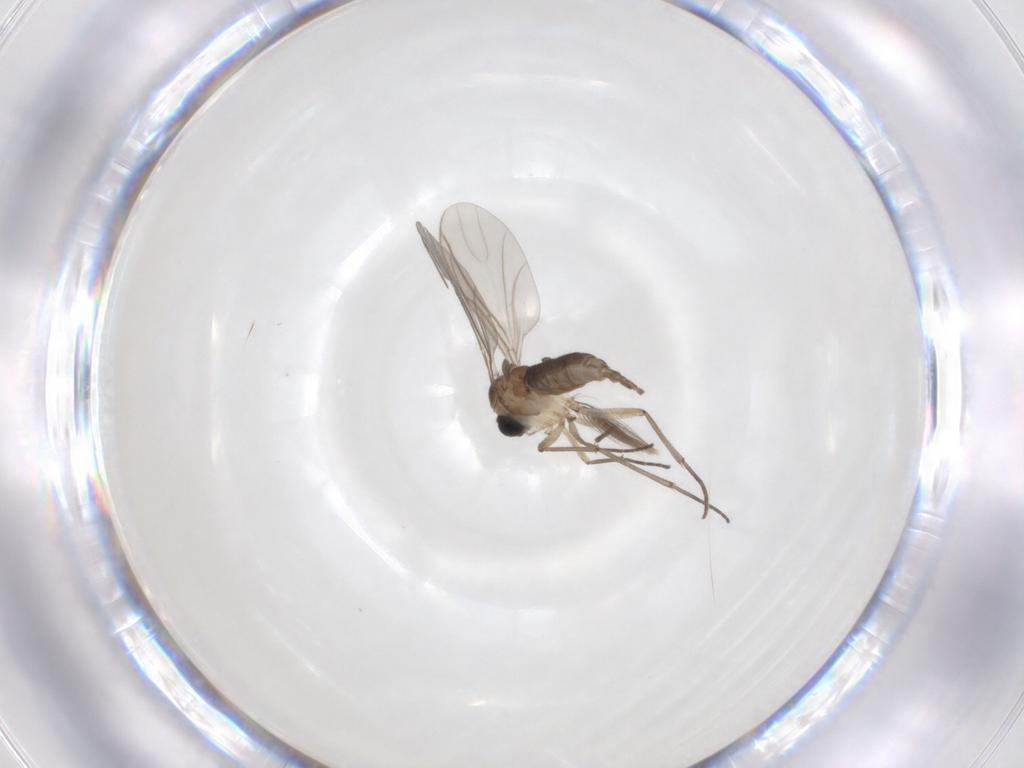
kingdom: Animalia
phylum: Arthropoda
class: Insecta
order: Diptera
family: Sciaridae
